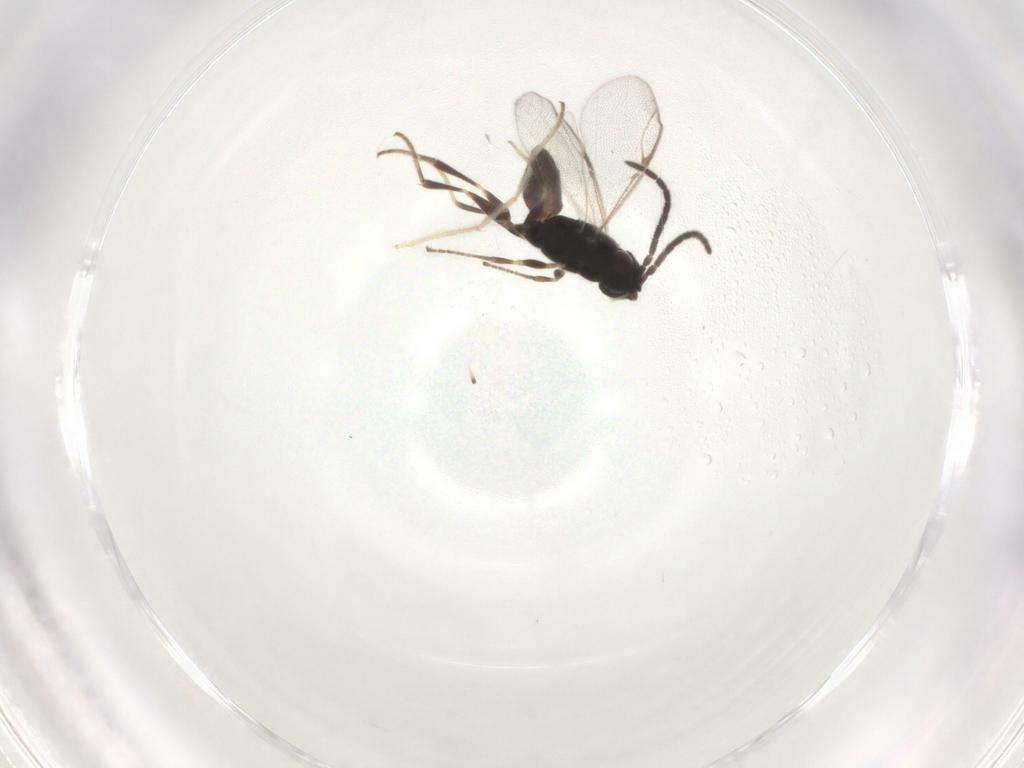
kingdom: Animalia
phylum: Arthropoda
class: Insecta
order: Hymenoptera
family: Dryinidae
